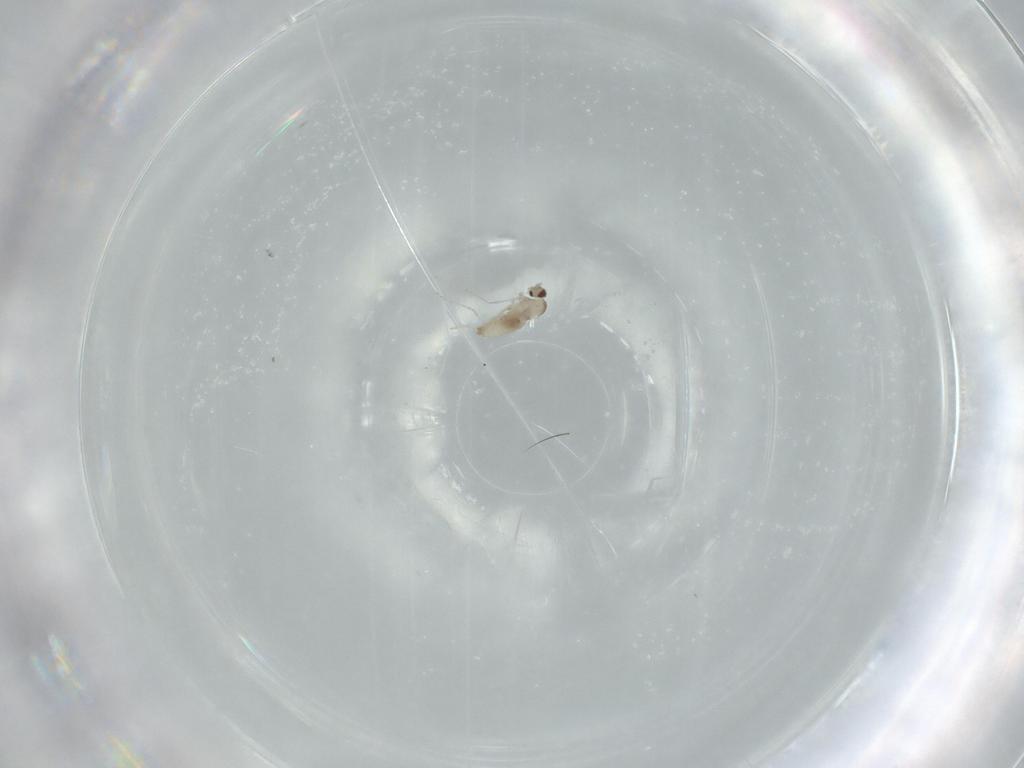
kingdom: Animalia
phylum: Arthropoda
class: Insecta
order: Diptera
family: Cecidomyiidae
